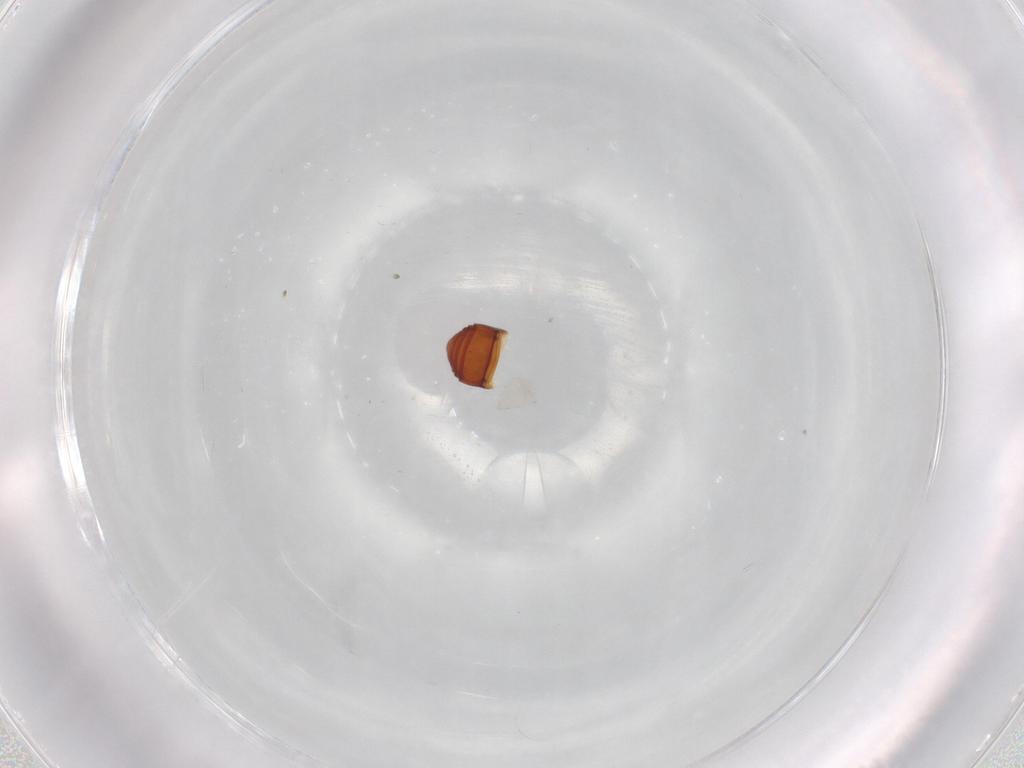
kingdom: Animalia
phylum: Arthropoda
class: Insecta
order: Coleoptera
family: Staphylinidae
